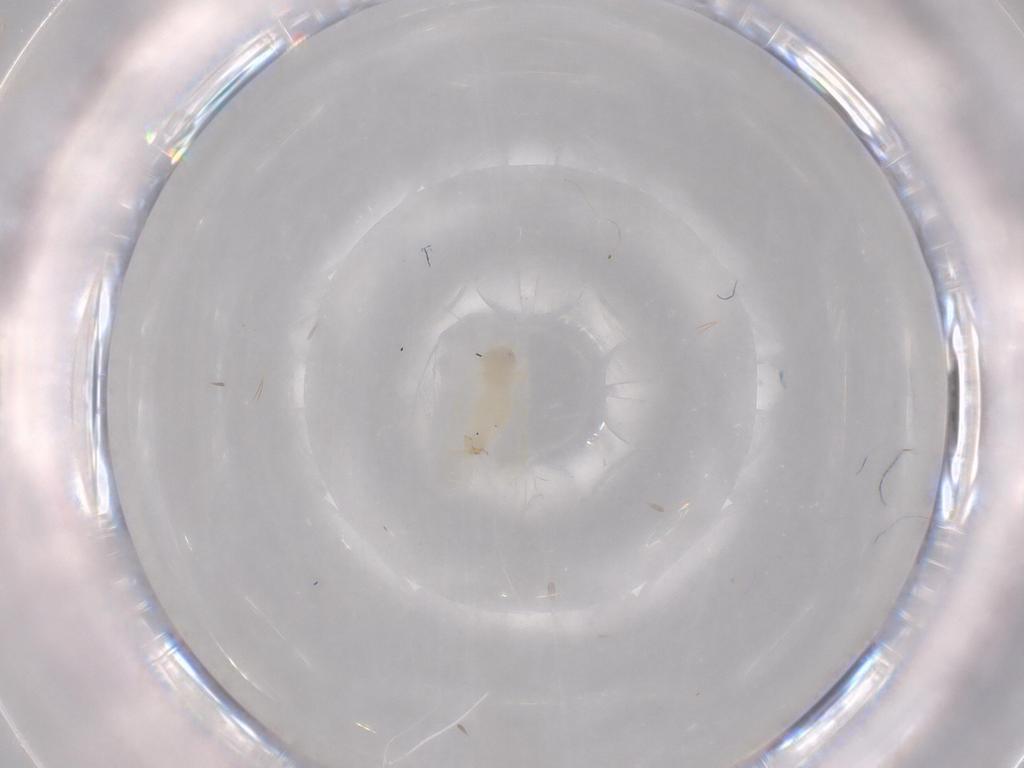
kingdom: Animalia
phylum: Arthropoda
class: Insecta
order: Hemiptera
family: Aleyrodidae
